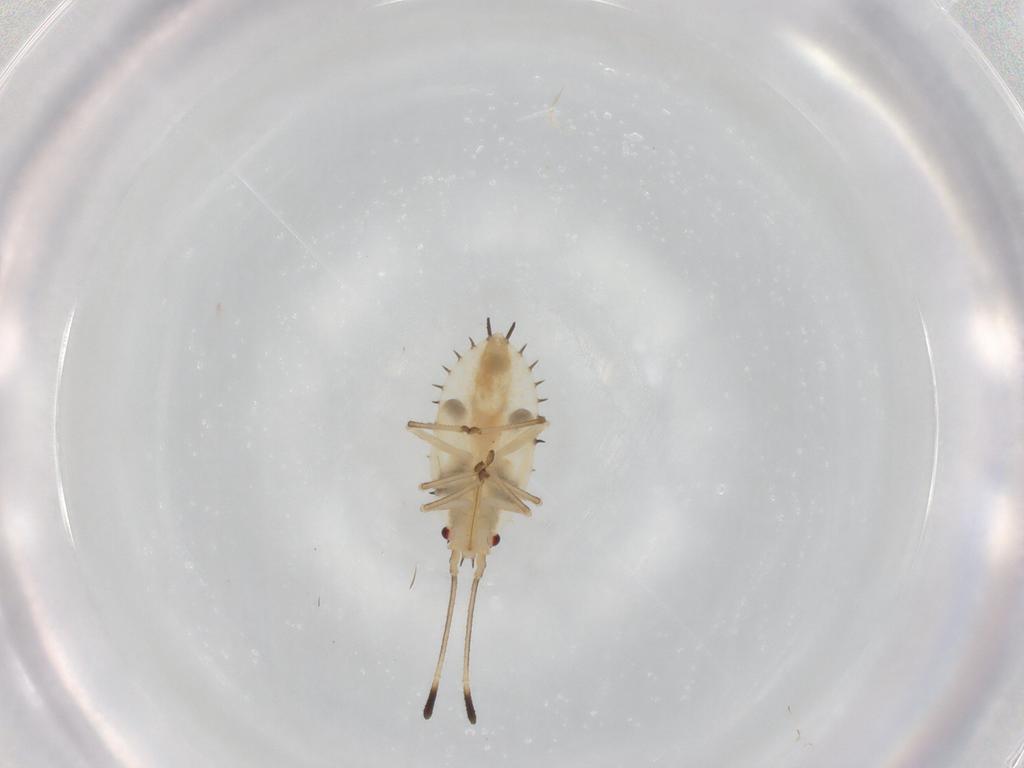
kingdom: Animalia
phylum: Arthropoda
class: Insecta
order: Hemiptera
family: Tingidae
